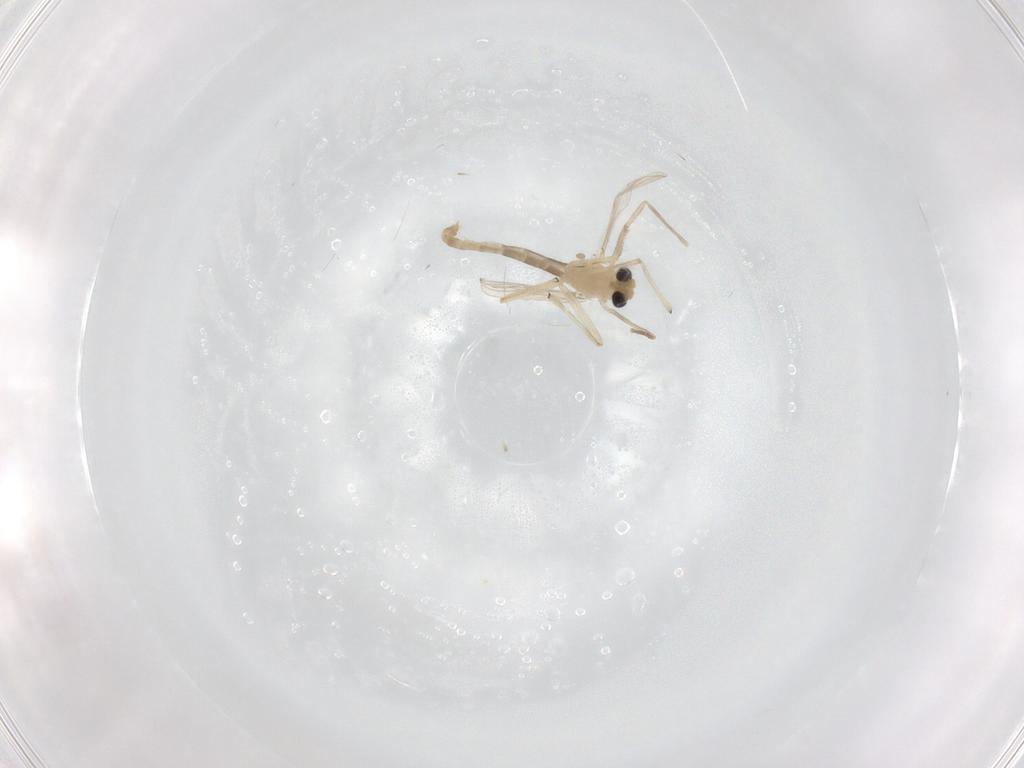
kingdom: Animalia
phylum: Arthropoda
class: Insecta
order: Diptera
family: Chironomidae
